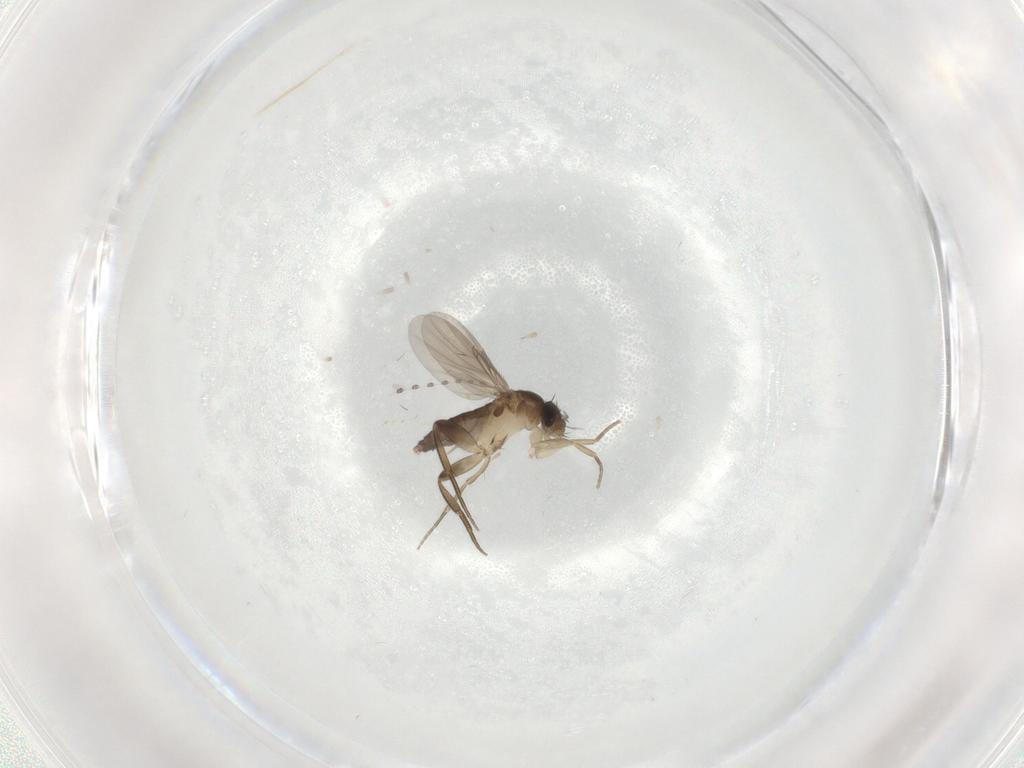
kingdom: Animalia
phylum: Arthropoda
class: Insecta
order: Diptera
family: Phoridae
